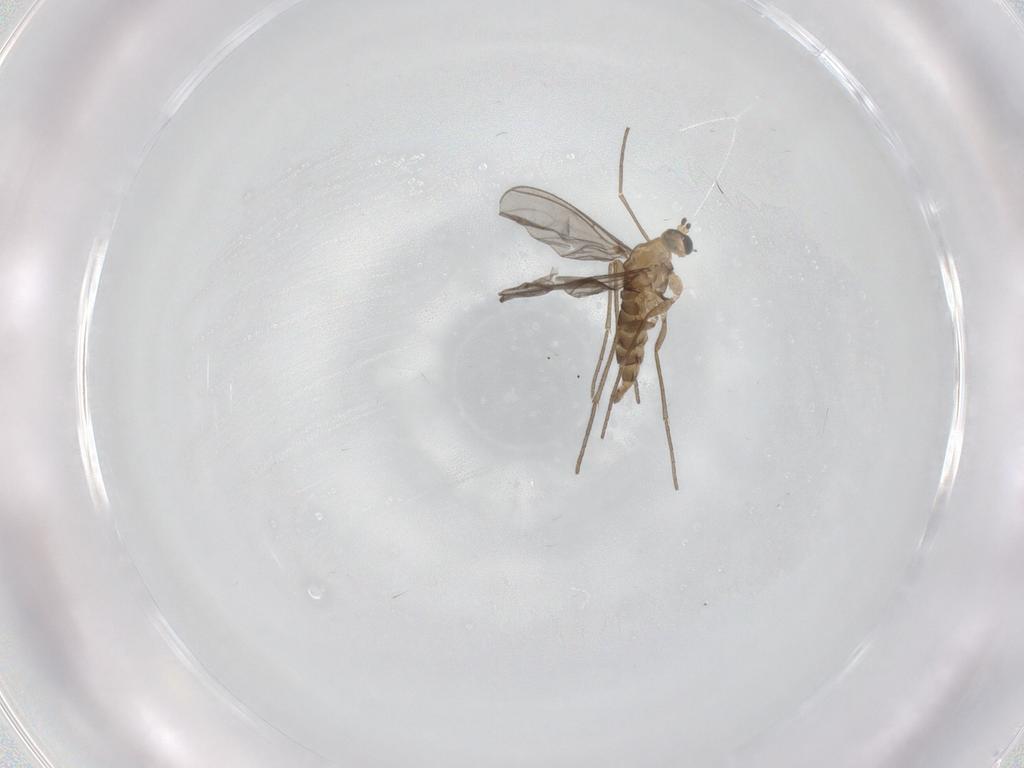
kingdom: Animalia
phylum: Arthropoda
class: Insecta
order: Diptera
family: Sciaridae
